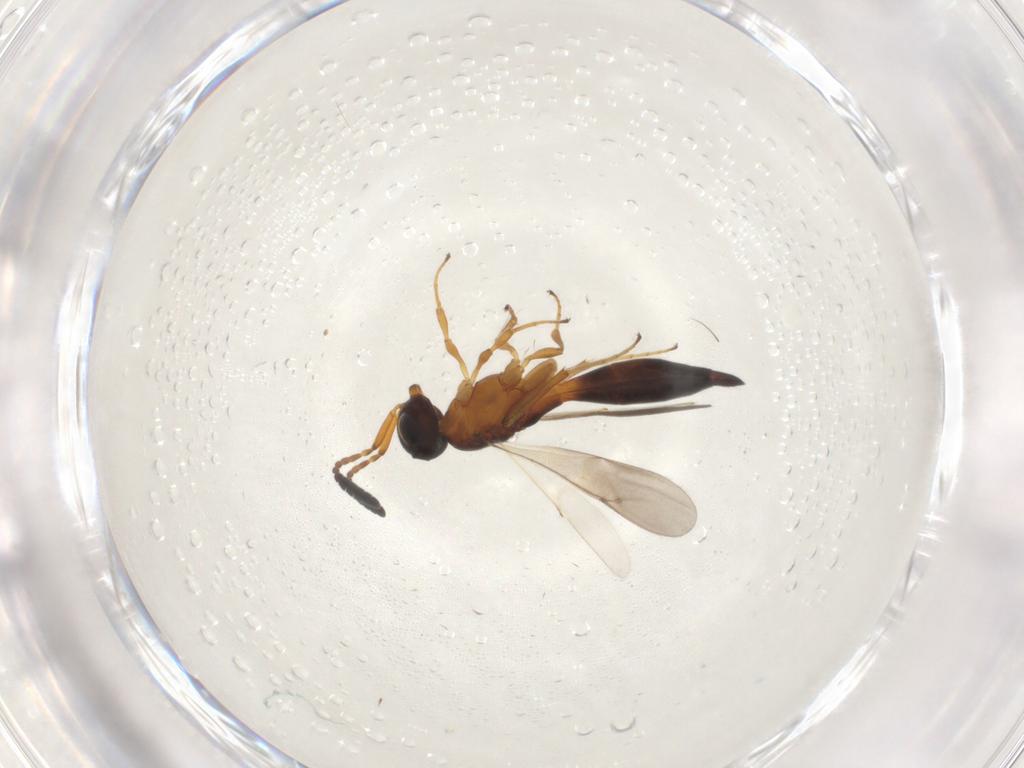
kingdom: Animalia
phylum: Arthropoda
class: Insecta
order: Hymenoptera
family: Scelionidae
